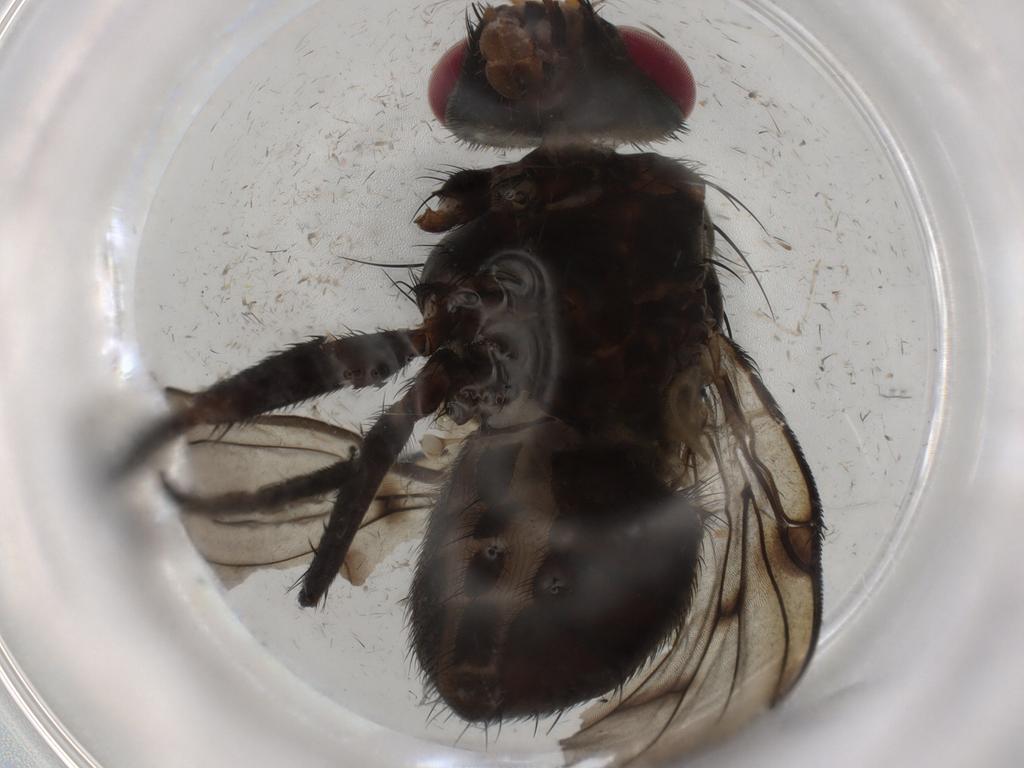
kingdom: Animalia
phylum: Arthropoda
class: Insecta
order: Diptera
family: Muscidae
